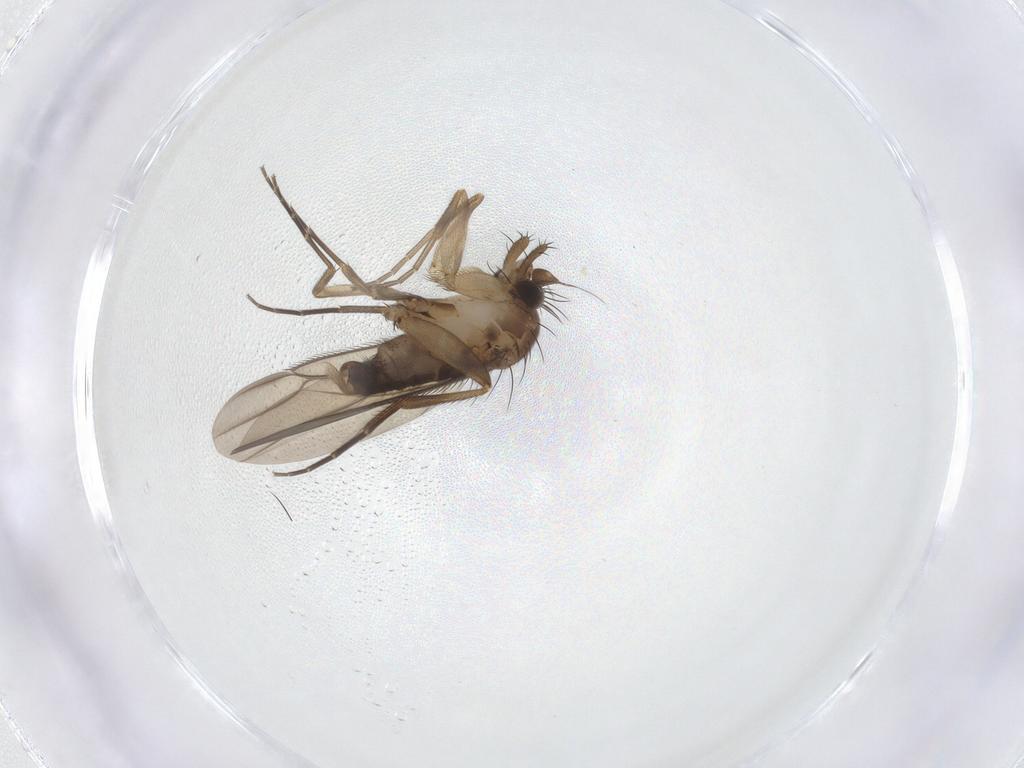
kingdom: Animalia
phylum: Arthropoda
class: Insecta
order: Diptera
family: Phoridae
